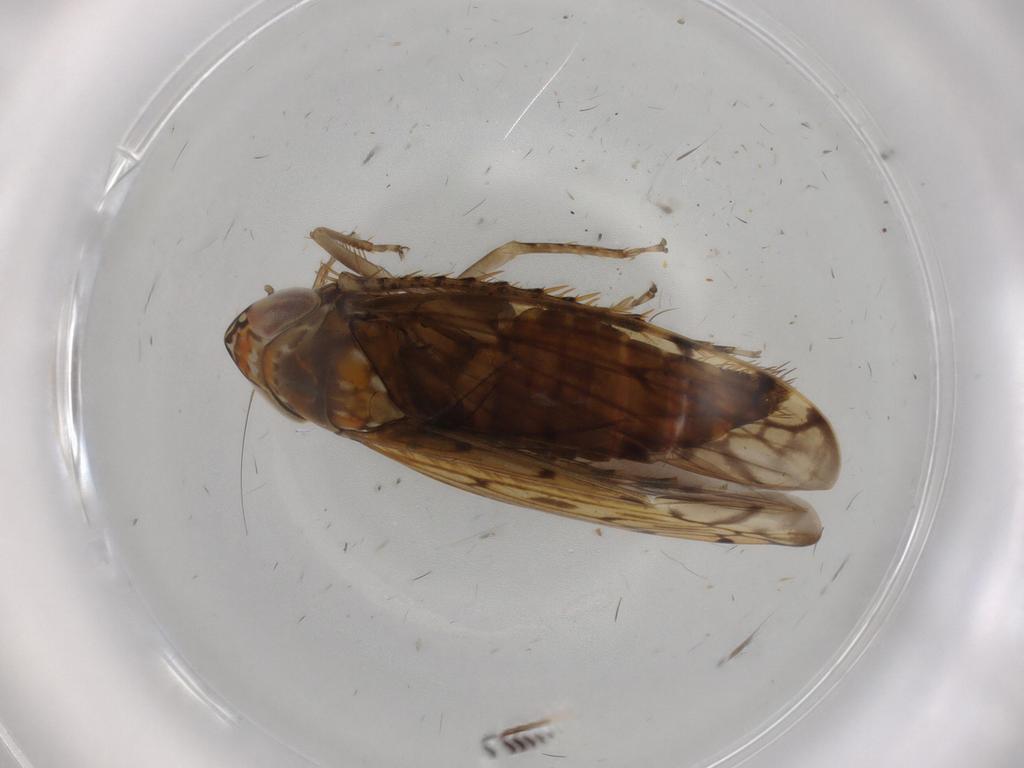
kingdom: Animalia
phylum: Arthropoda
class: Insecta
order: Hemiptera
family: Cicadellidae
